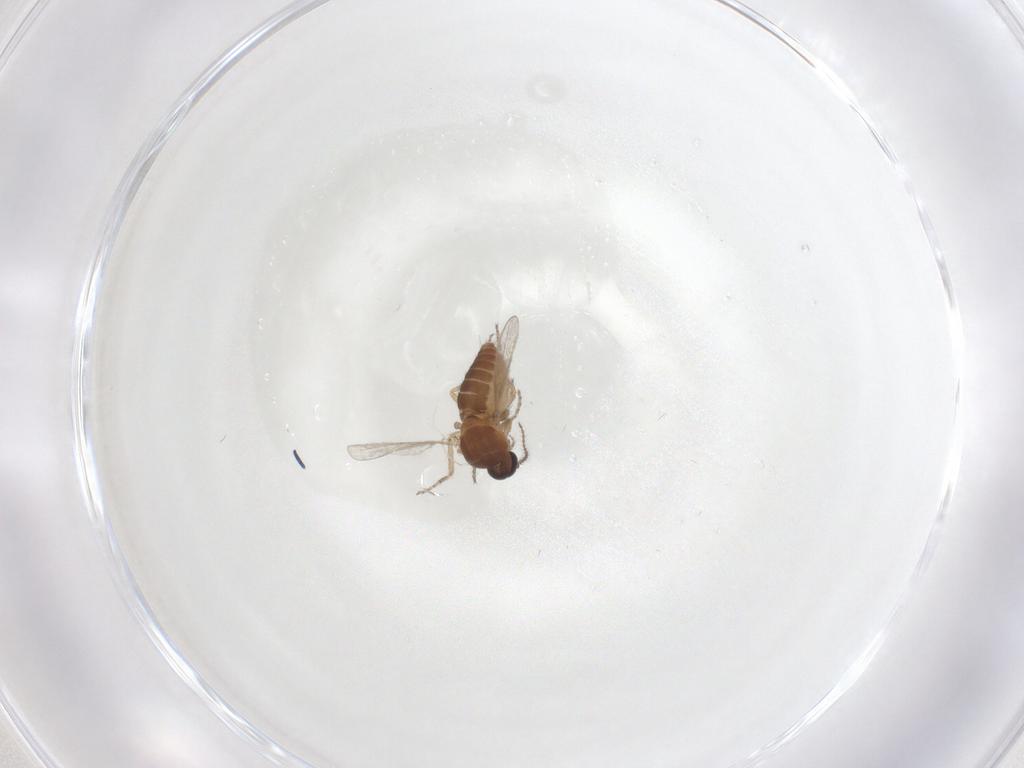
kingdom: Animalia
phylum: Arthropoda
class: Insecta
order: Diptera
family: Ceratopogonidae
